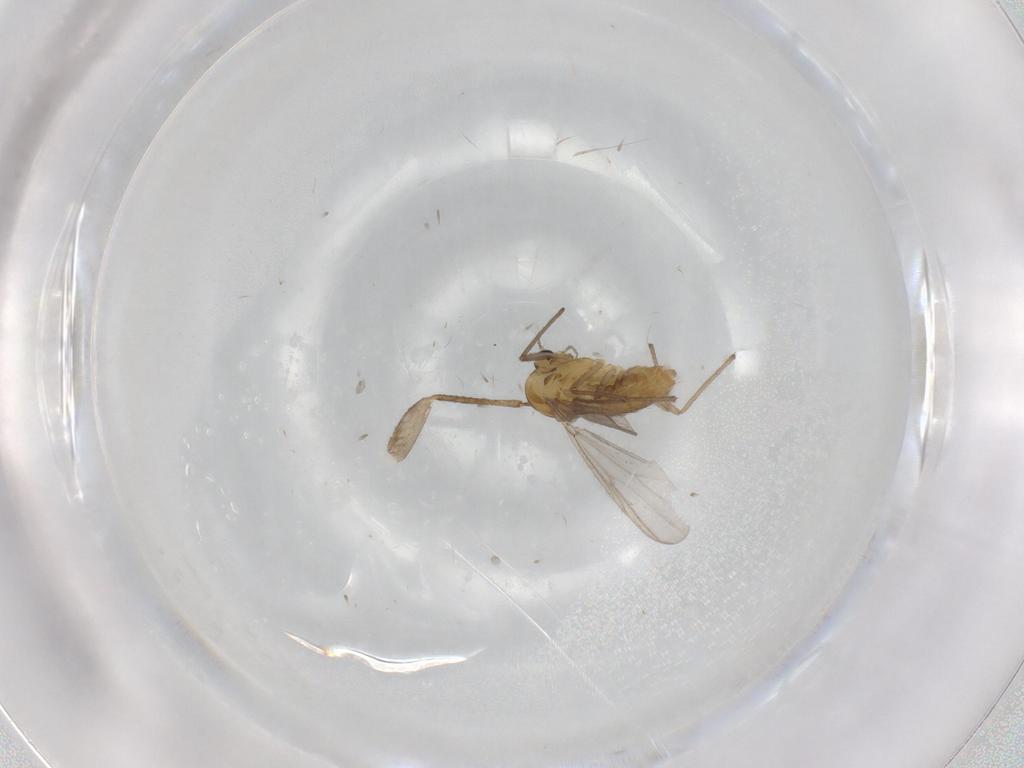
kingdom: Animalia
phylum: Arthropoda
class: Insecta
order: Diptera
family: Chironomidae
